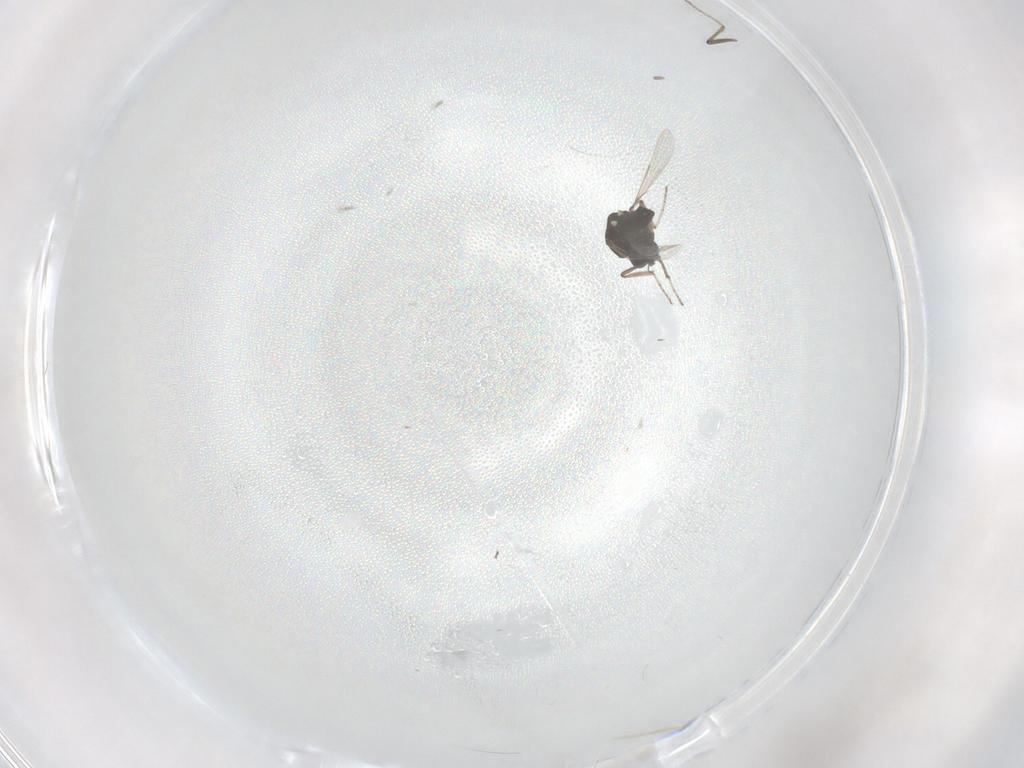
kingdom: Animalia
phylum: Arthropoda
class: Insecta
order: Diptera
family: Ceratopogonidae
